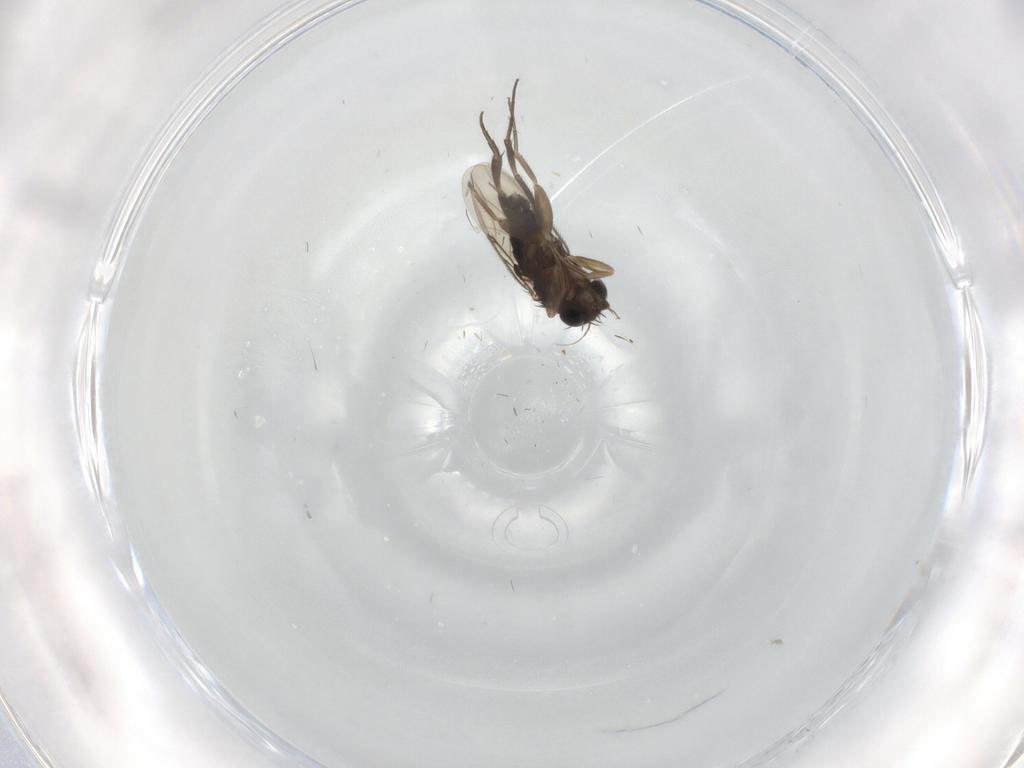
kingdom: Animalia
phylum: Arthropoda
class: Insecta
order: Diptera
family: Phoridae
